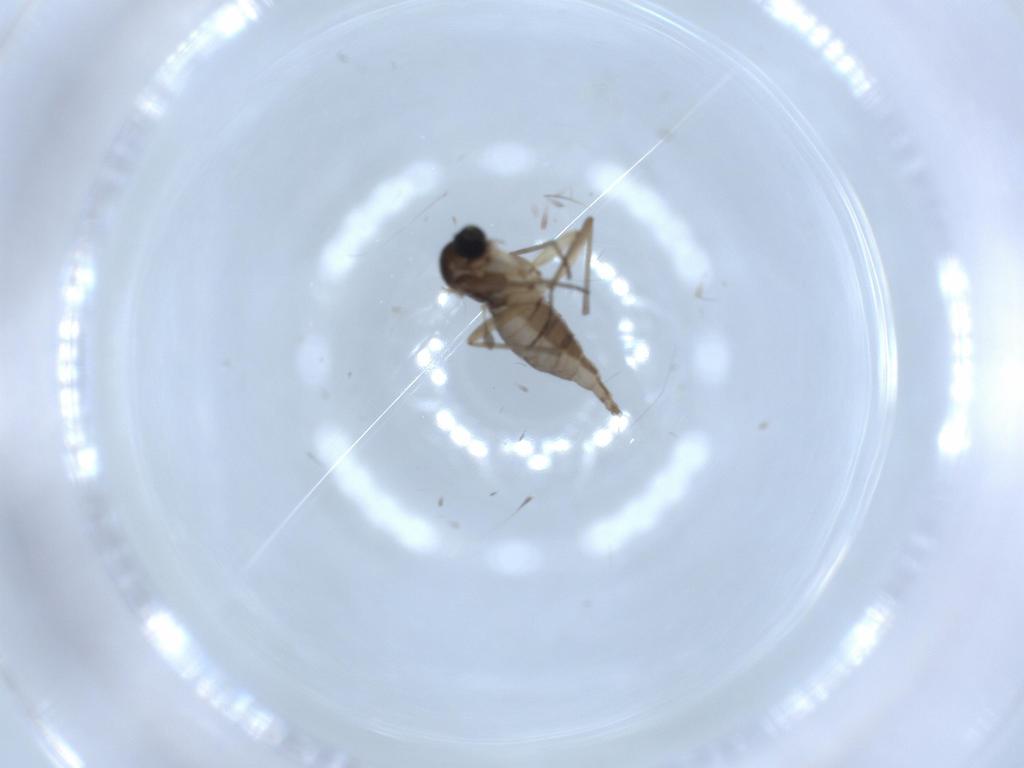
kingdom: Animalia
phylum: Arthropoda
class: Insecta
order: Diptera
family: Phoridae
